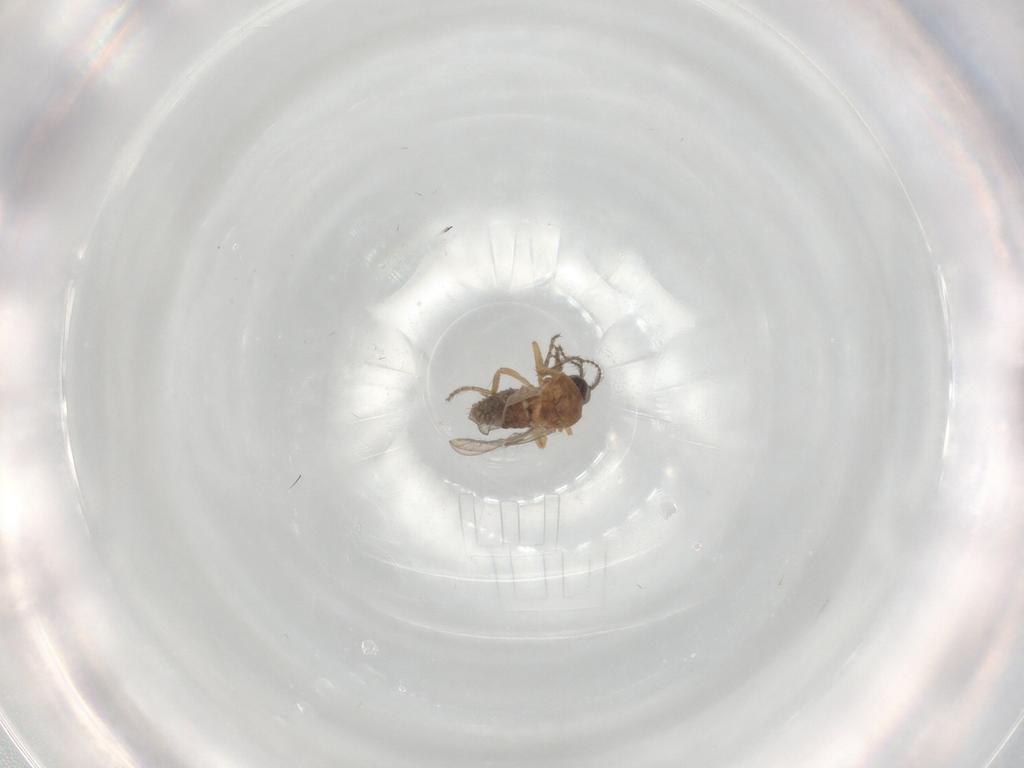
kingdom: Animalia
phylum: Arthropoda
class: Insecta
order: Diptera
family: Ceratopogonidae
